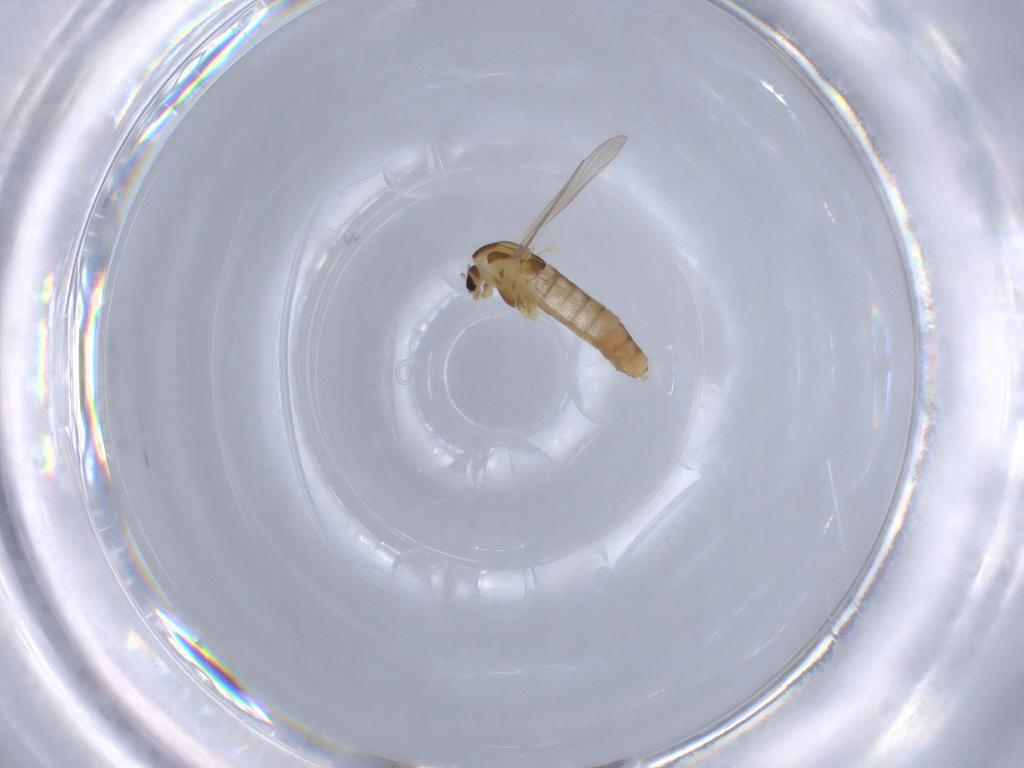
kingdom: Animalia
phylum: Arthropoda
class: Insecta
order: Diptera
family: Chironomidae
